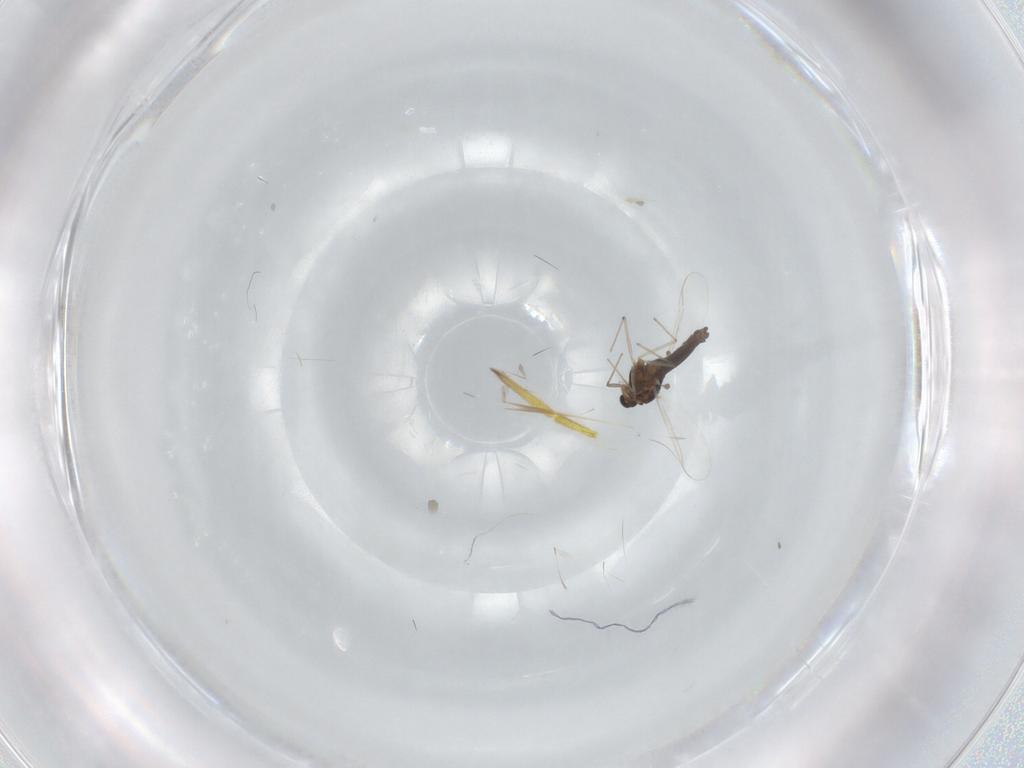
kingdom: Animalia
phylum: Arthropoda
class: Insecta
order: Diptera
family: Chironomidae
